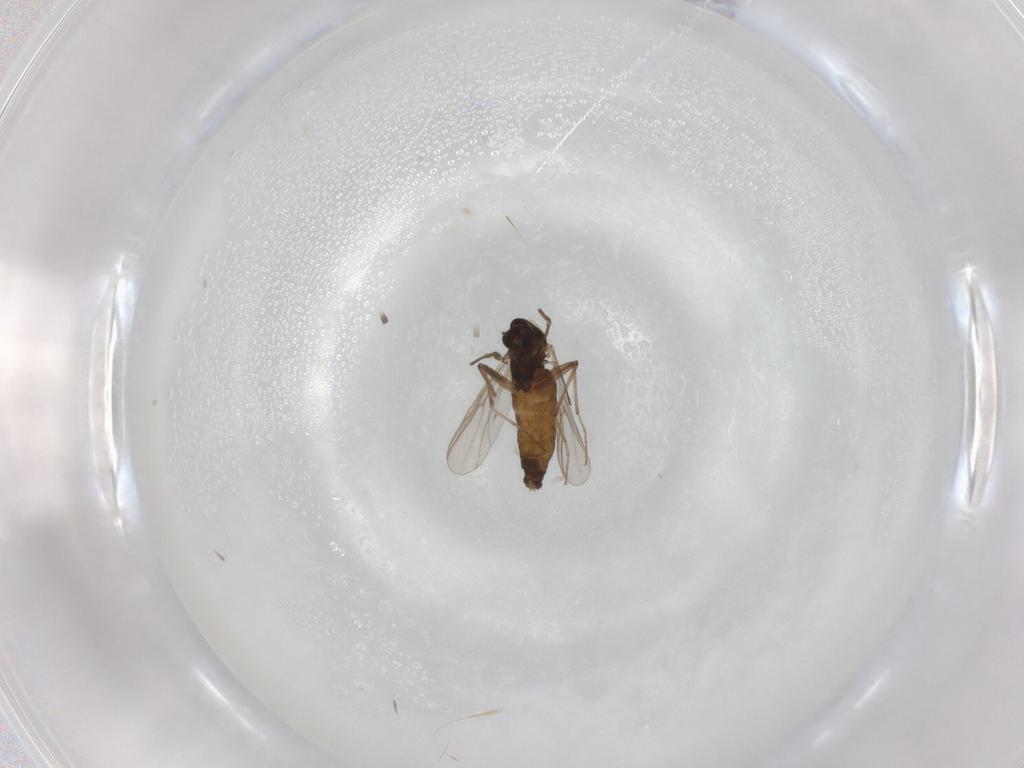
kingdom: Animalia
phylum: Arthropoda
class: Insecta
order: Diptera
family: Chironomidae
